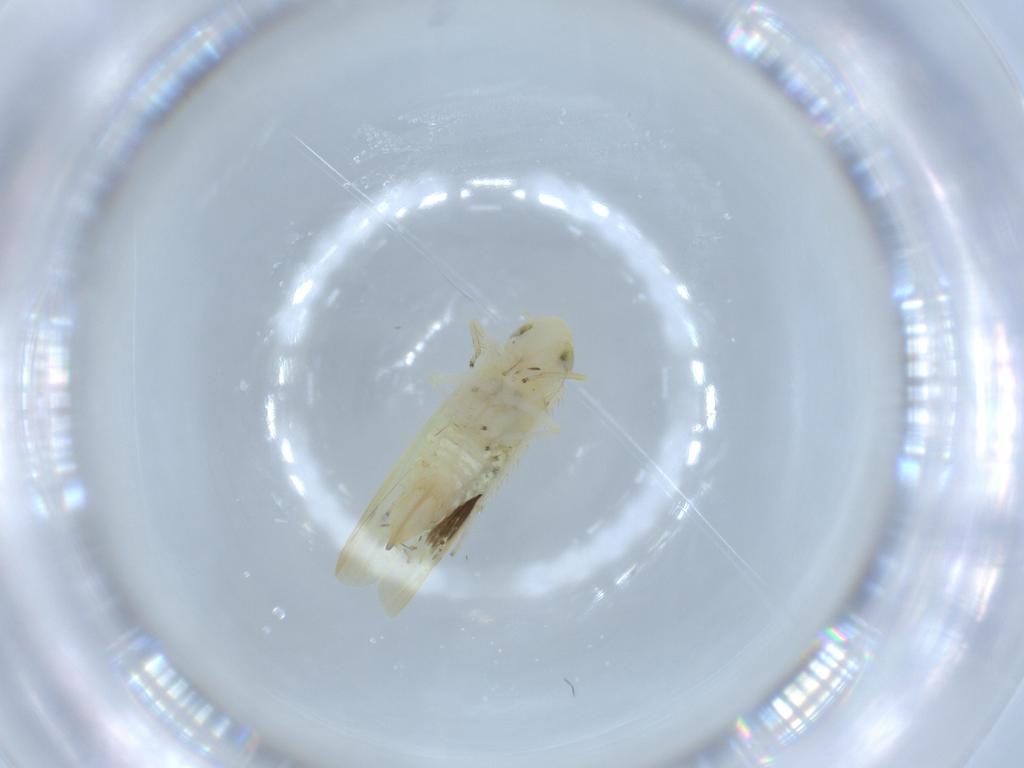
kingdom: Animalia
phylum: Arthropoda
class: Insecta
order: Hemiptera
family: Cicadellidae
